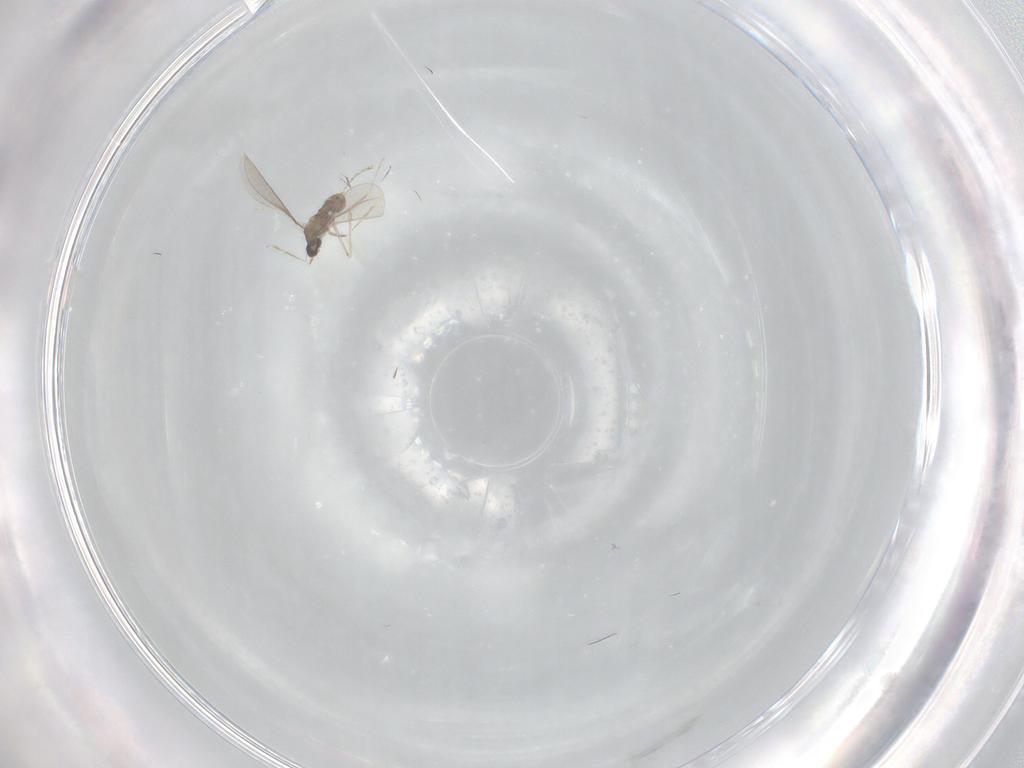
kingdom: Animalia
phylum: Arthropoda
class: Insecta
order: Diptera
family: Cecidomyiidae
